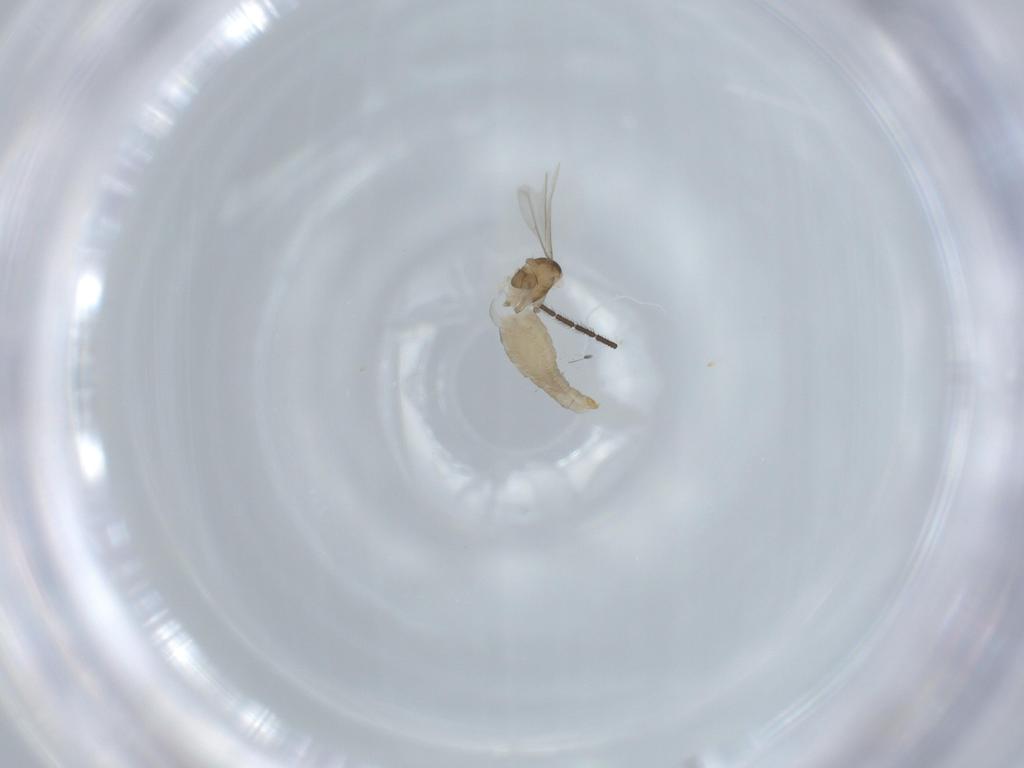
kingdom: Animalia
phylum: Arthropoda
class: Insecta
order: Diptera
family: Cecidomyiidae
